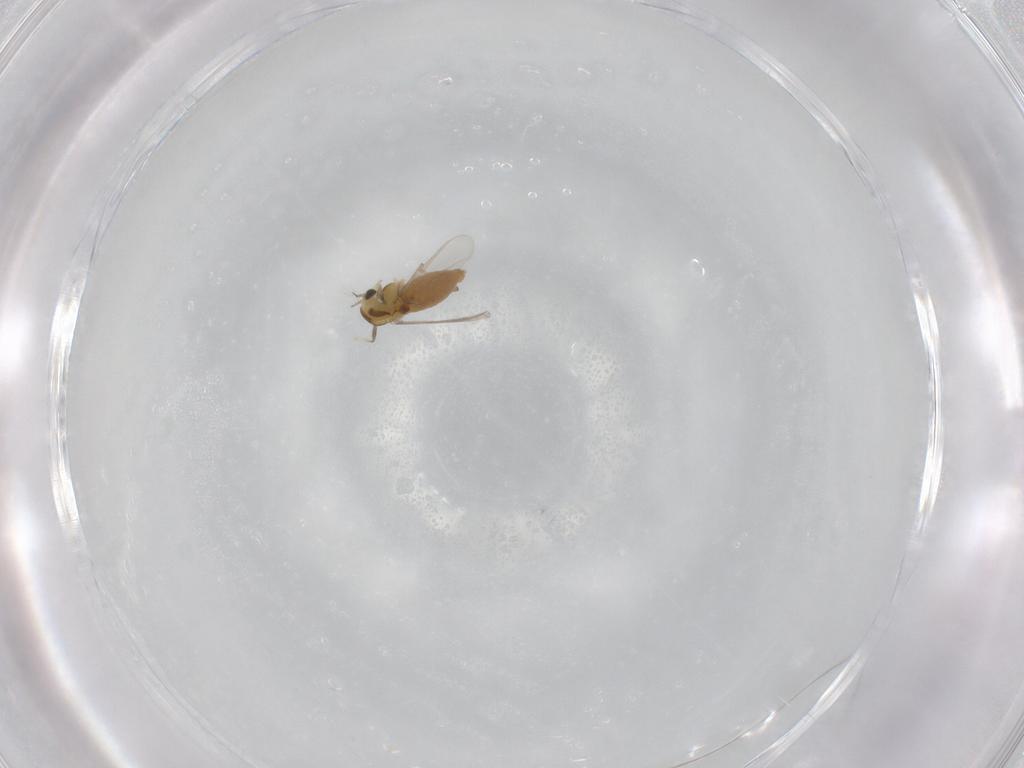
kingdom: Animalia
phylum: Arthropoda
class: Insecta
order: Diptera
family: Chironomidae
